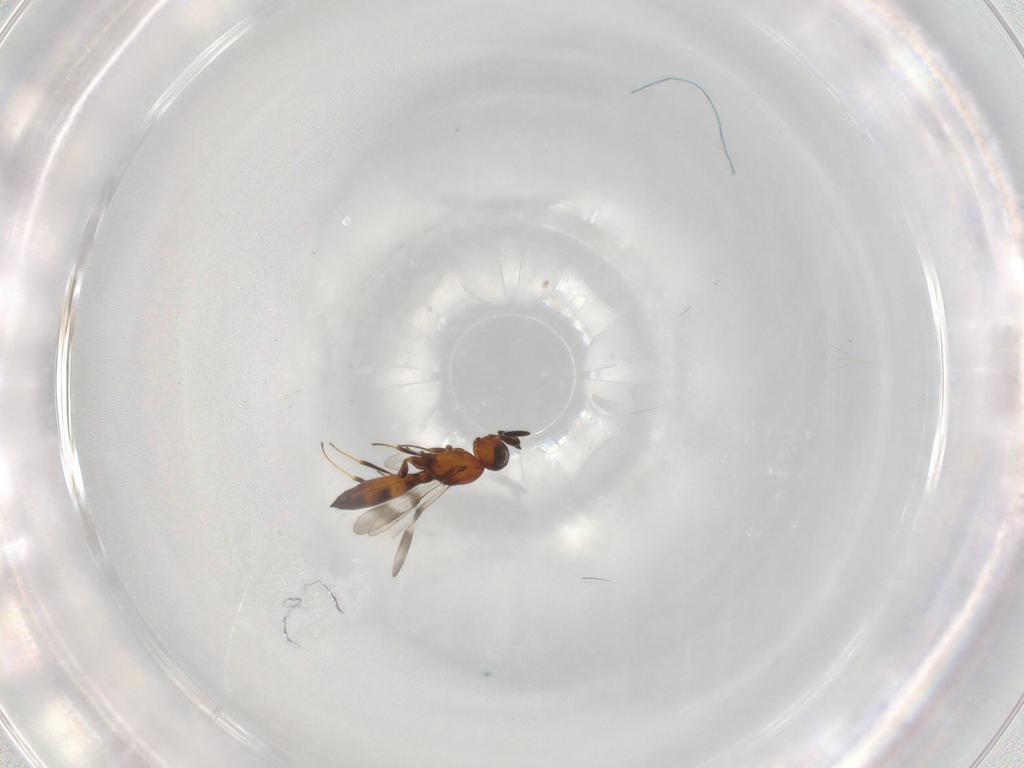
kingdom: Animalia
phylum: Arthropoda
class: Insecta
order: Hymenoptera
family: Scelionidae
